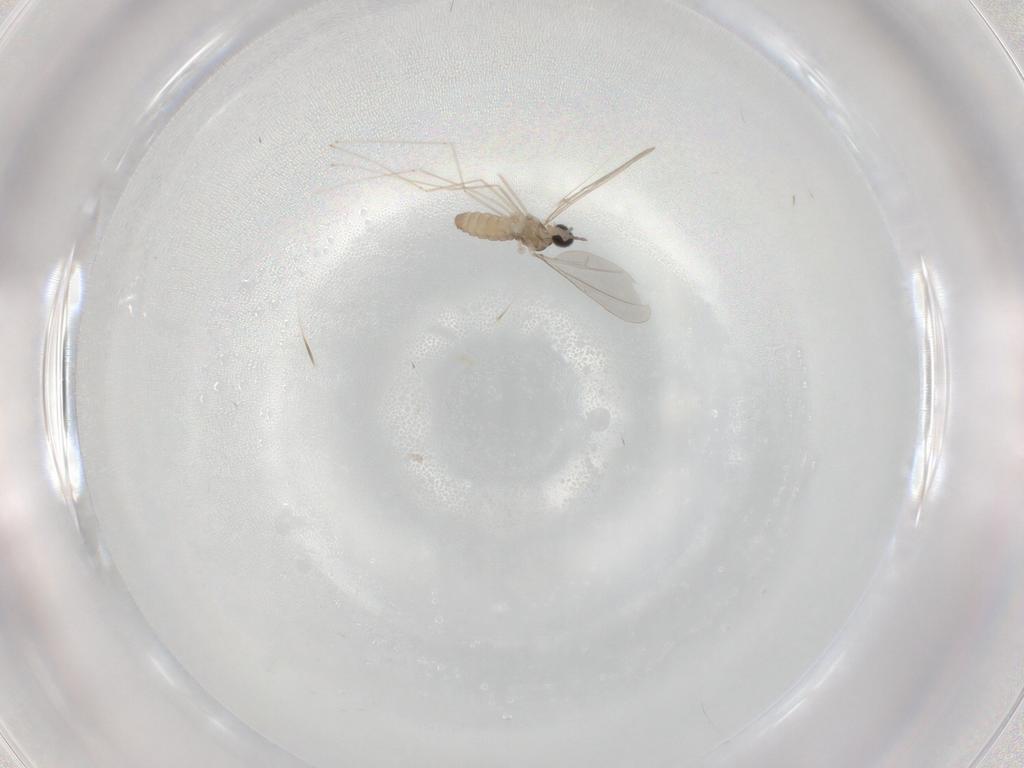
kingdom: Animalia
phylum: Arthropoda
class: Insecta
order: Diptera
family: Cecidomyiidae
